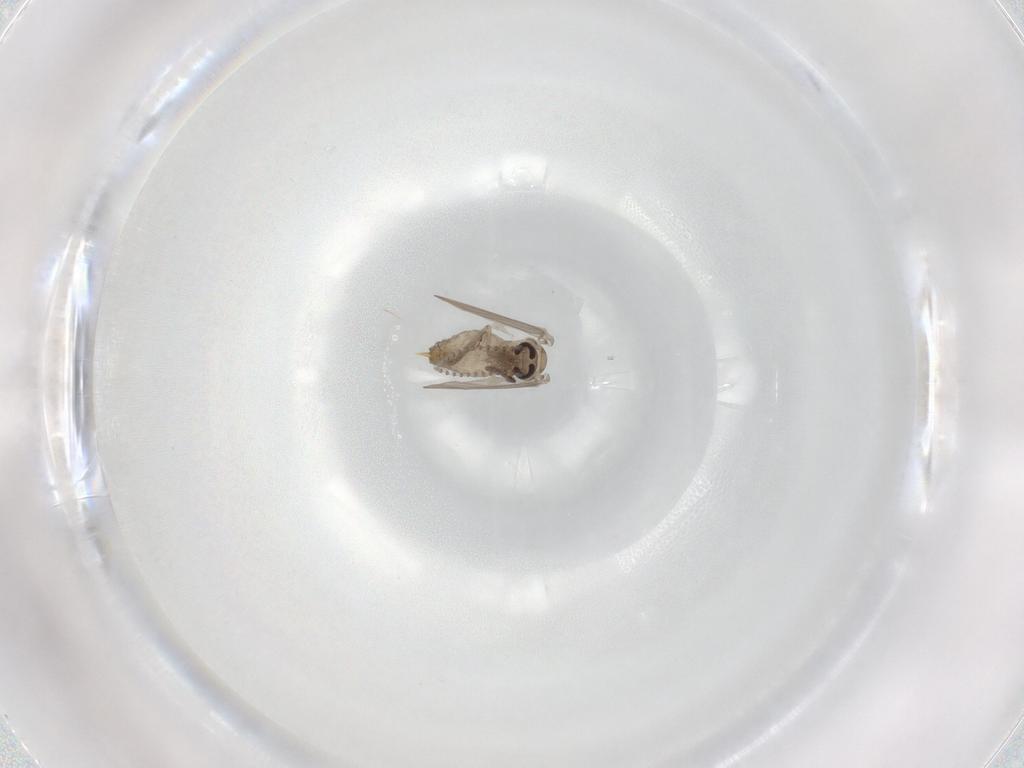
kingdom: Animalia
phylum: Arthropoda
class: Insecta
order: Diptera
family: Psychodidae
